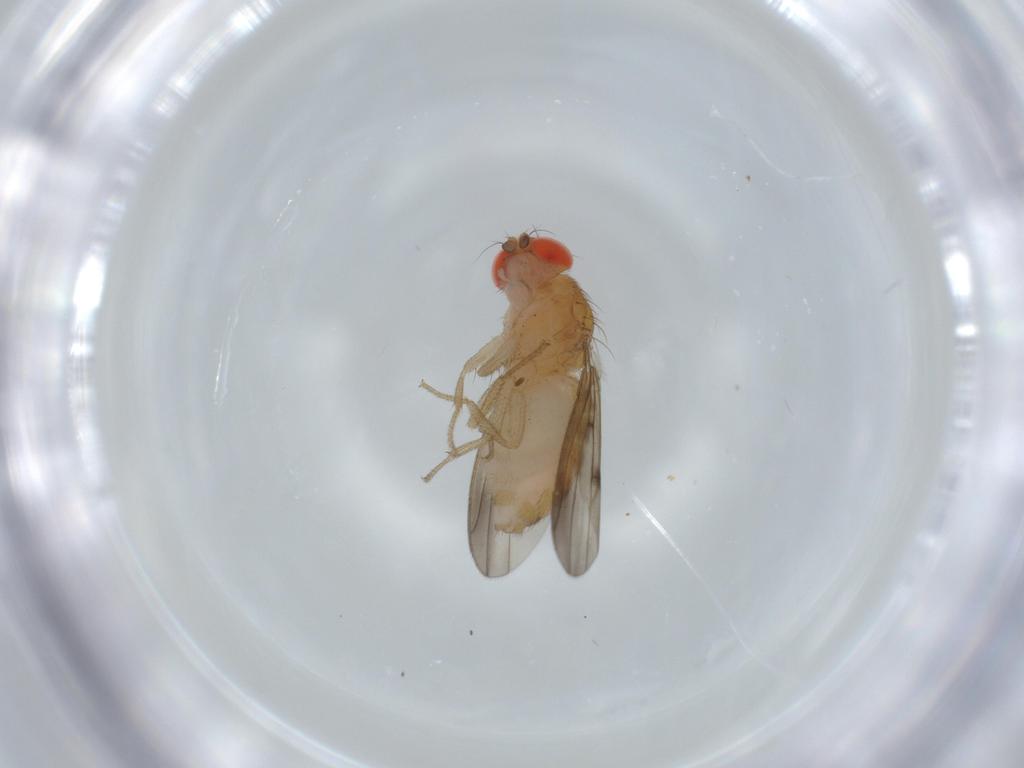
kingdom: Animalia
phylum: Arthropoda
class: Insecta
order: Diptera
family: Drosophilidae
